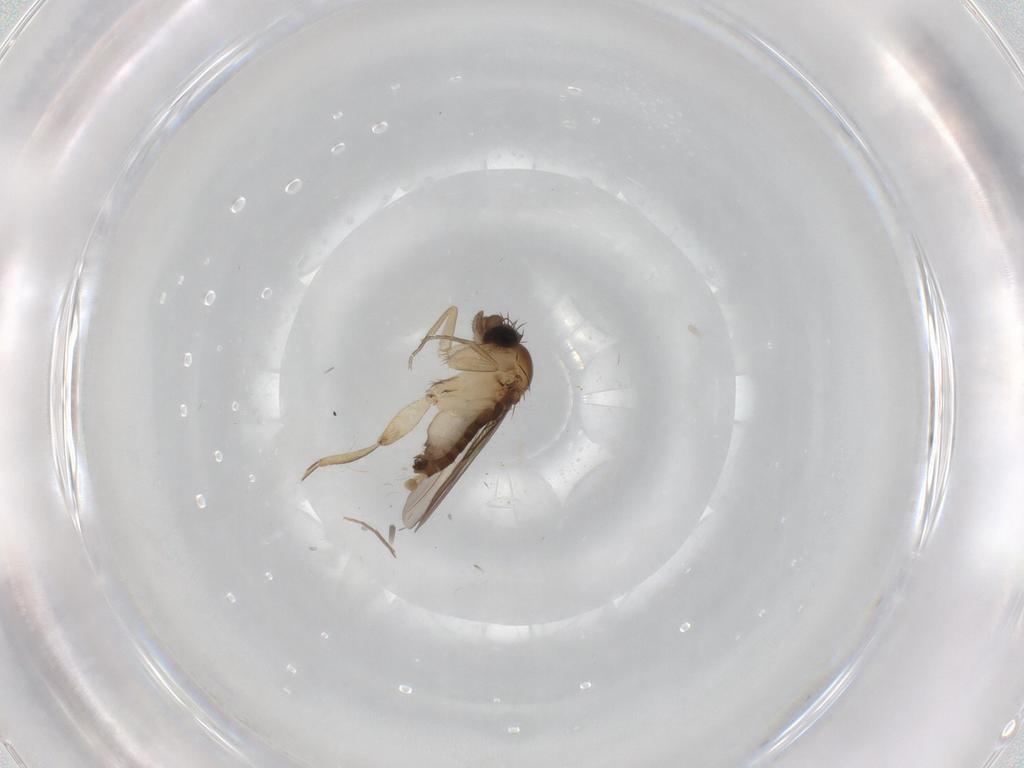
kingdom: Animalia
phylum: Arthropoda
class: Insecta
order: Diptera
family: Phoridae
